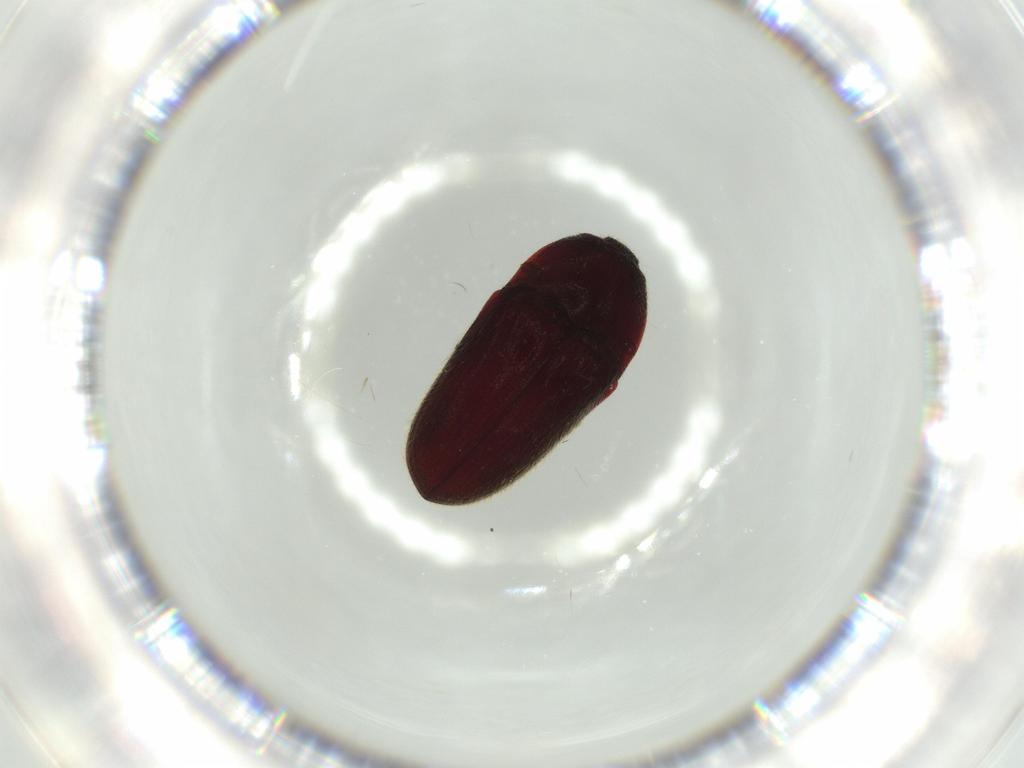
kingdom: Animalia
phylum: Arthropoda
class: Insecta
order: Coleoptera
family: Throscidae
